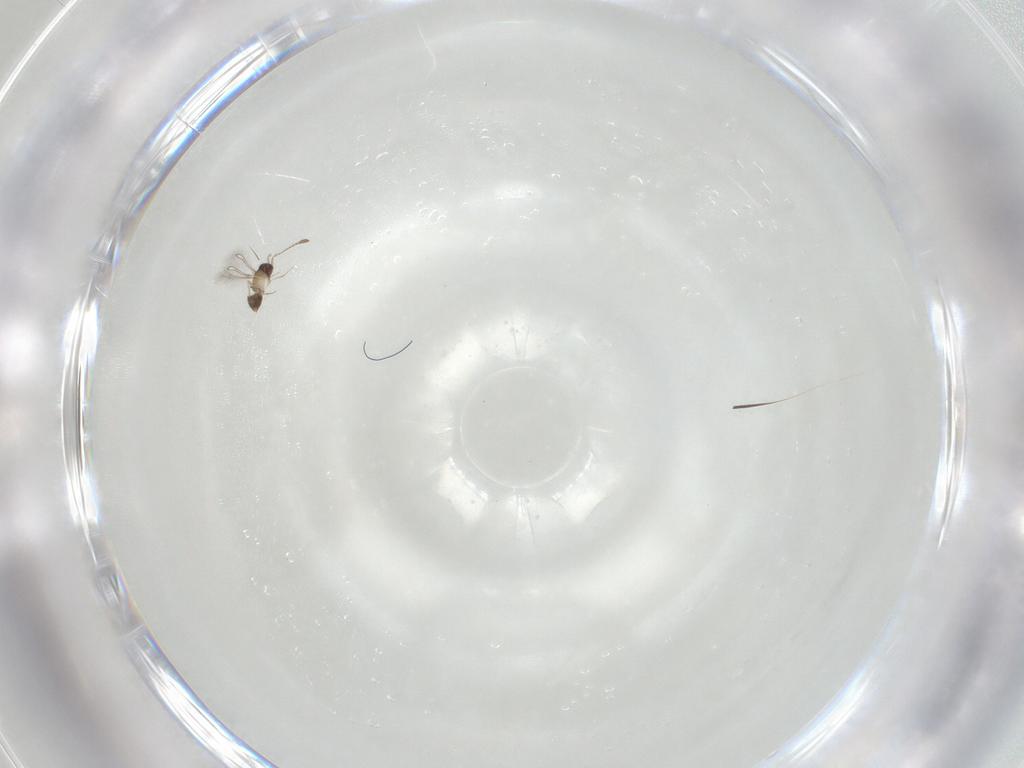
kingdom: Animalia
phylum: Arthropoda
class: Insecta
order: Hymenoptera
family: Mymaridae
